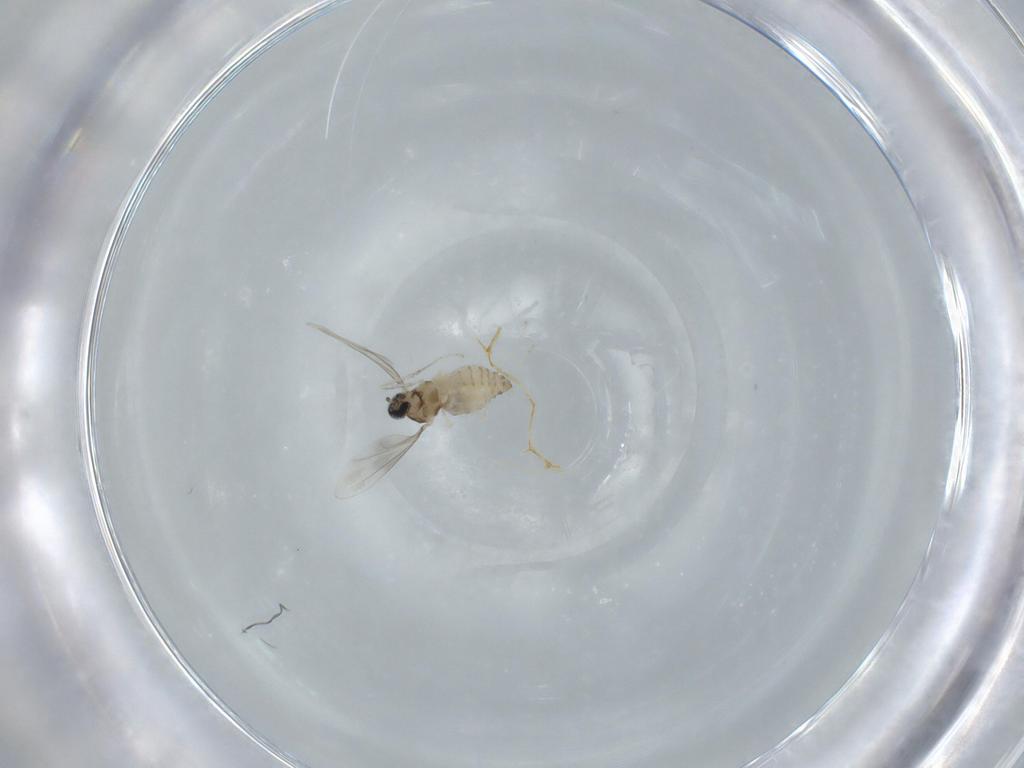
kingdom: Animalia
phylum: Arthropoda
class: Insecta
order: Diptera
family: Cecidomyiidae
